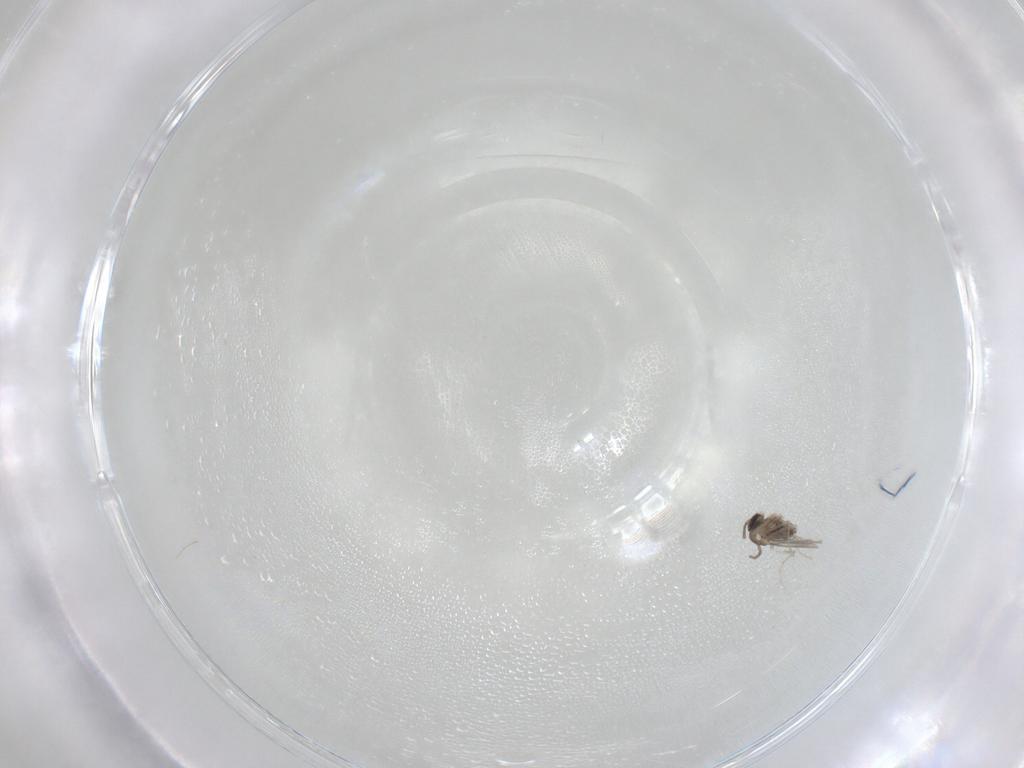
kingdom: Animalia
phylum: Arthropoda
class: Insecta
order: Diptera
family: Cecidomyiidae
